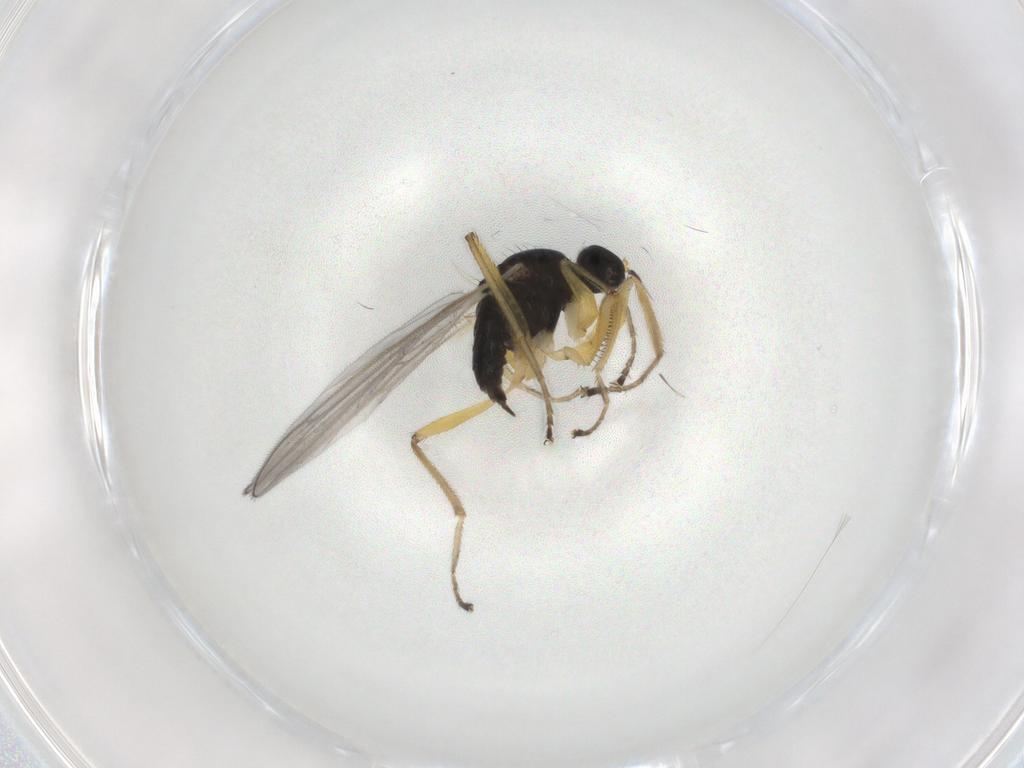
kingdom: Animalia
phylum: Arthropoda
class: Insecta
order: Diptera
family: Hybotidae
